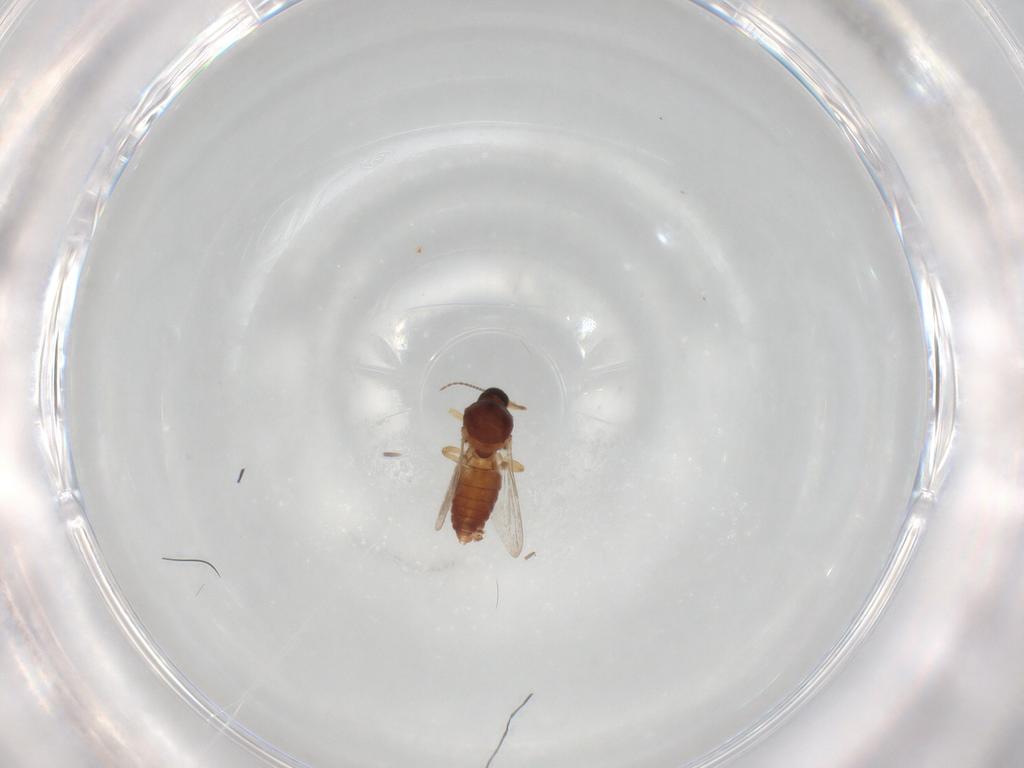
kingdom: Animalia
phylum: Arthropoda
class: Insecta
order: Diptera
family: Ceratopogonidae
